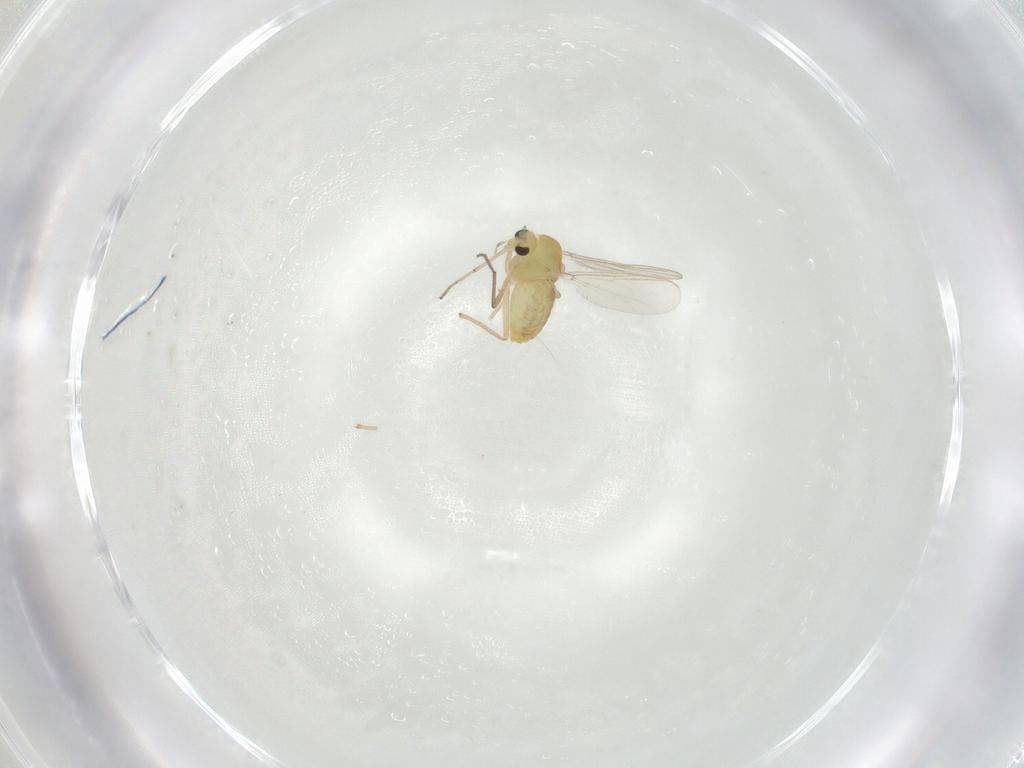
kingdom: Animalia
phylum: Arthropoda
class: Insecta
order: Diptera
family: Chironomidae
